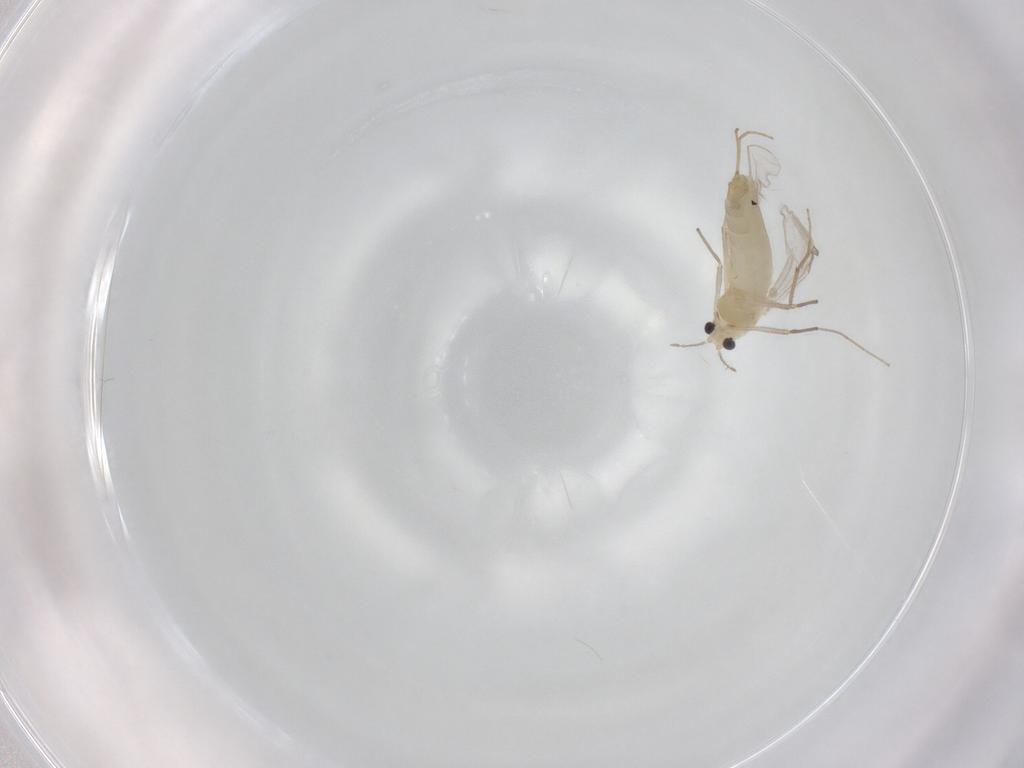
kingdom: Animalia
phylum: Arthropoda
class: Insecta
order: Diptera
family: Chironomidae
